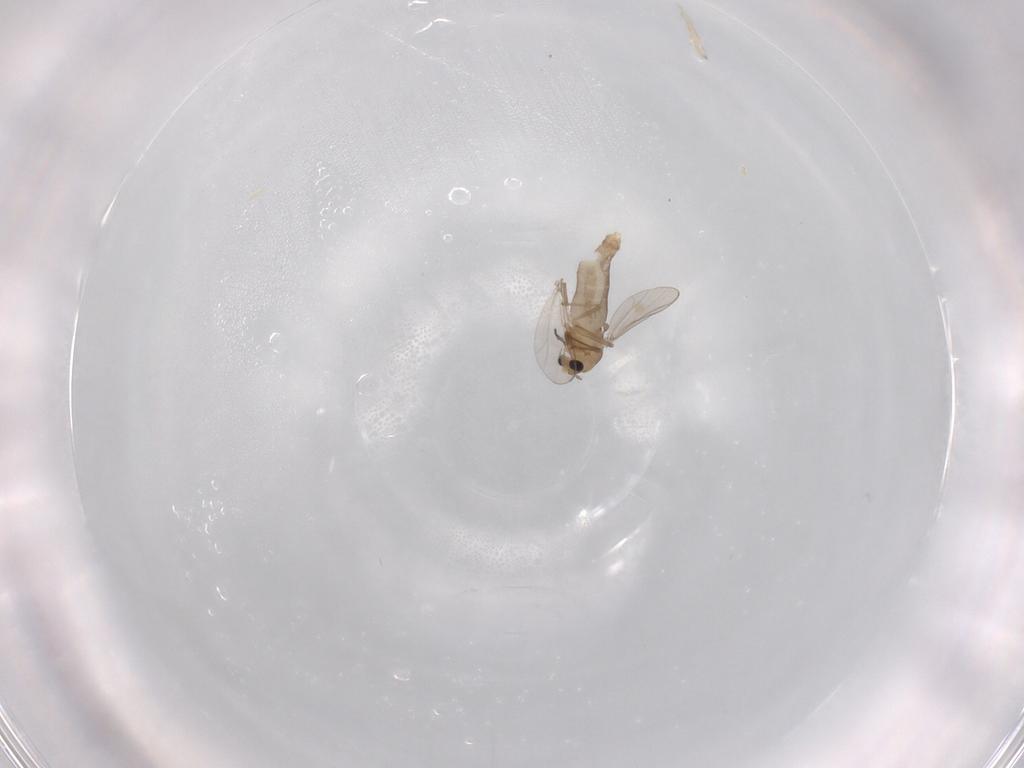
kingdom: Animalia
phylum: Arthropoda
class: Insecta
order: Diptera
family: Chironomidae
